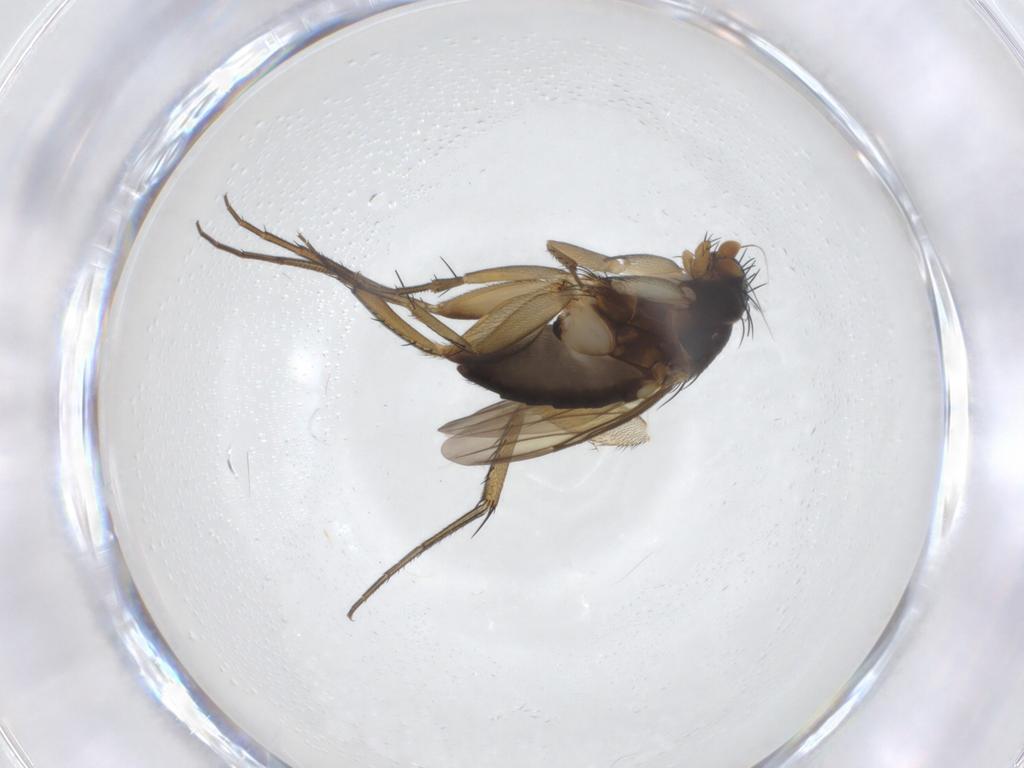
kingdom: Animalia
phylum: Arthropoda
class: Insecta
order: Diptera
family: Phoridae
